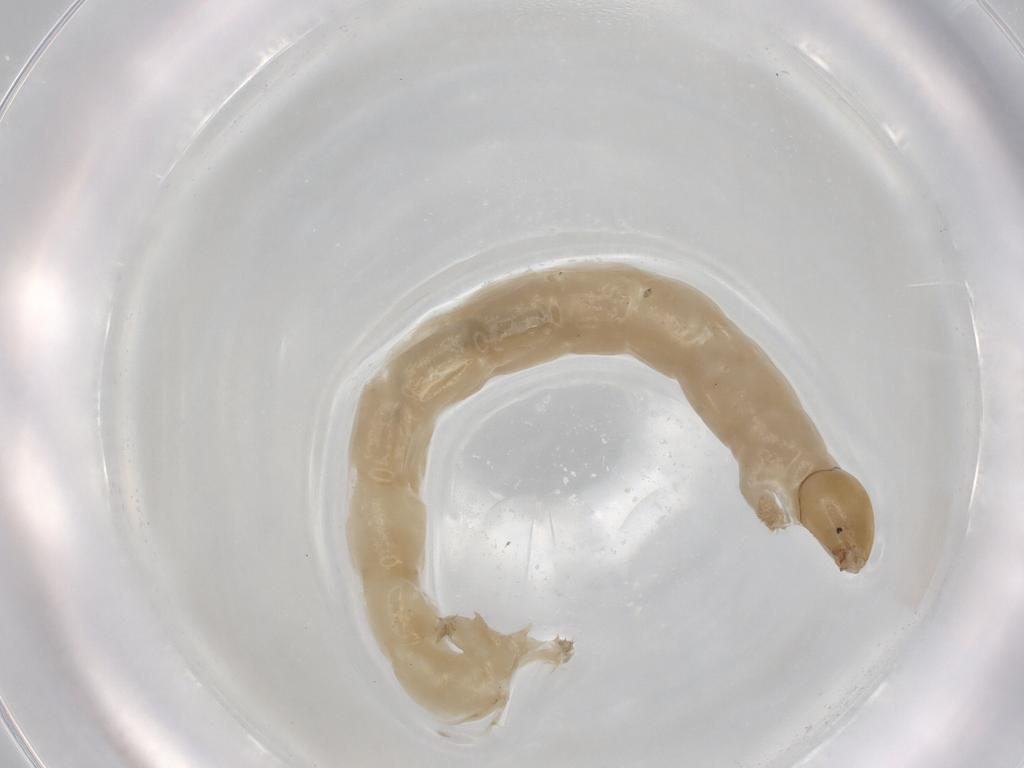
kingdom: Animalia
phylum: Arthropoda
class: Insecta
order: Diptera
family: Chironomidae
